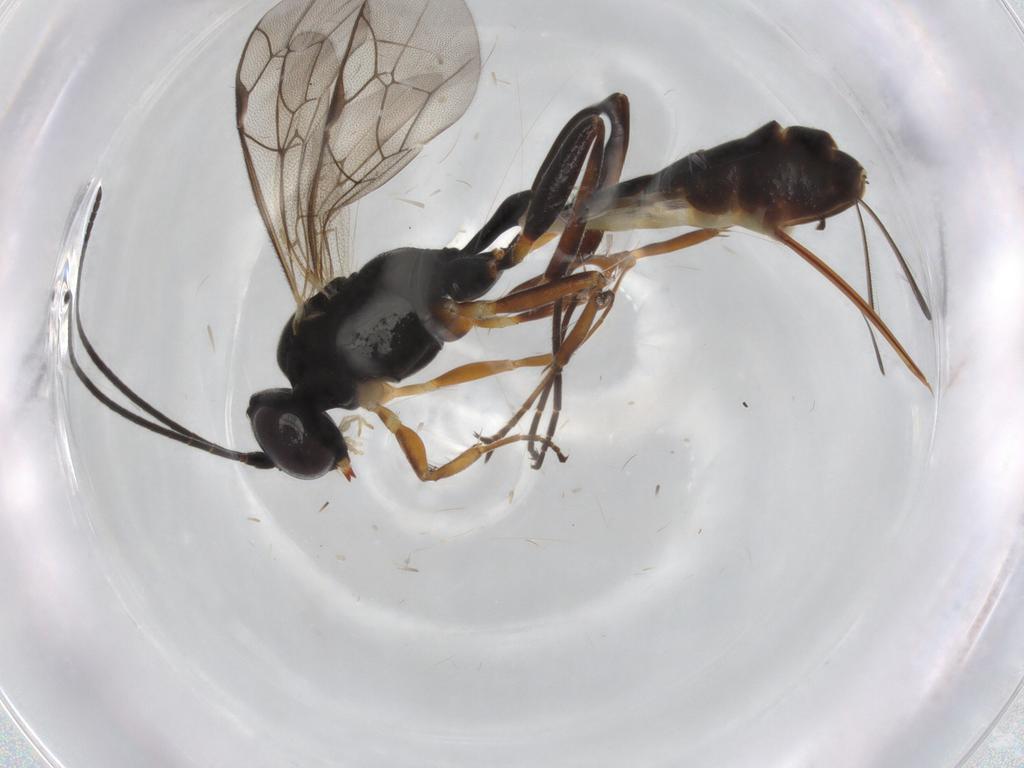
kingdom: Animalia
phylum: Arthropoda
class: Insecta
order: Hymenoptera
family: Ichneumonidae
